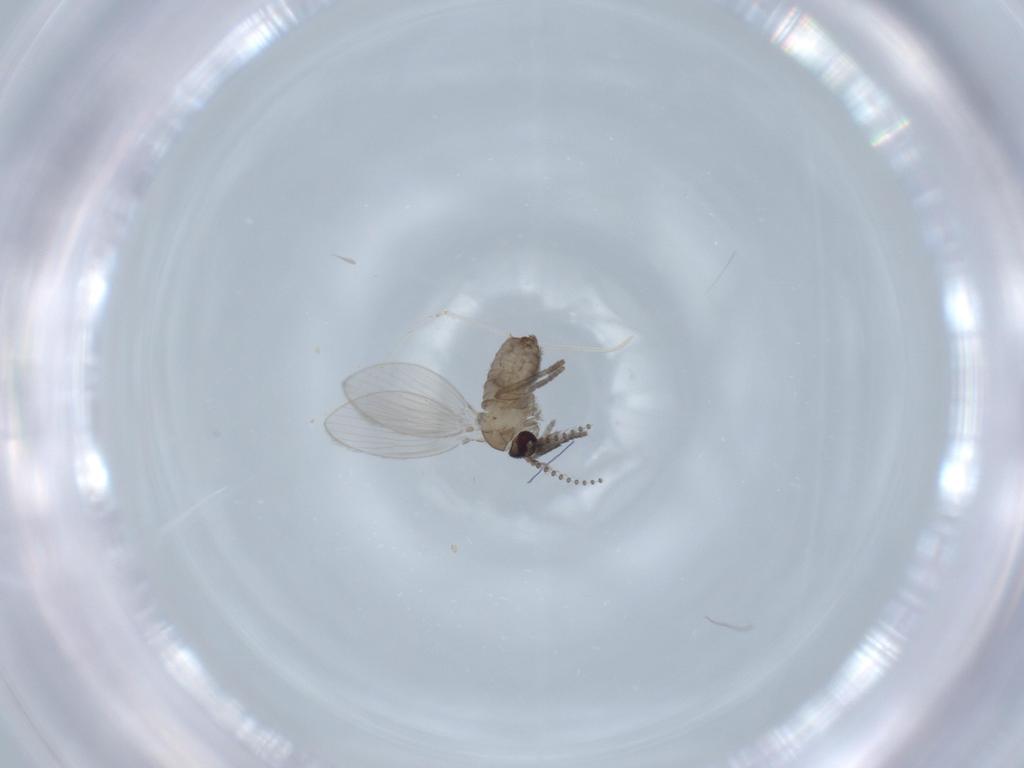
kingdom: Animalia
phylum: Arthropoda
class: Insecta
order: Diptera
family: Cecidomyiidae
